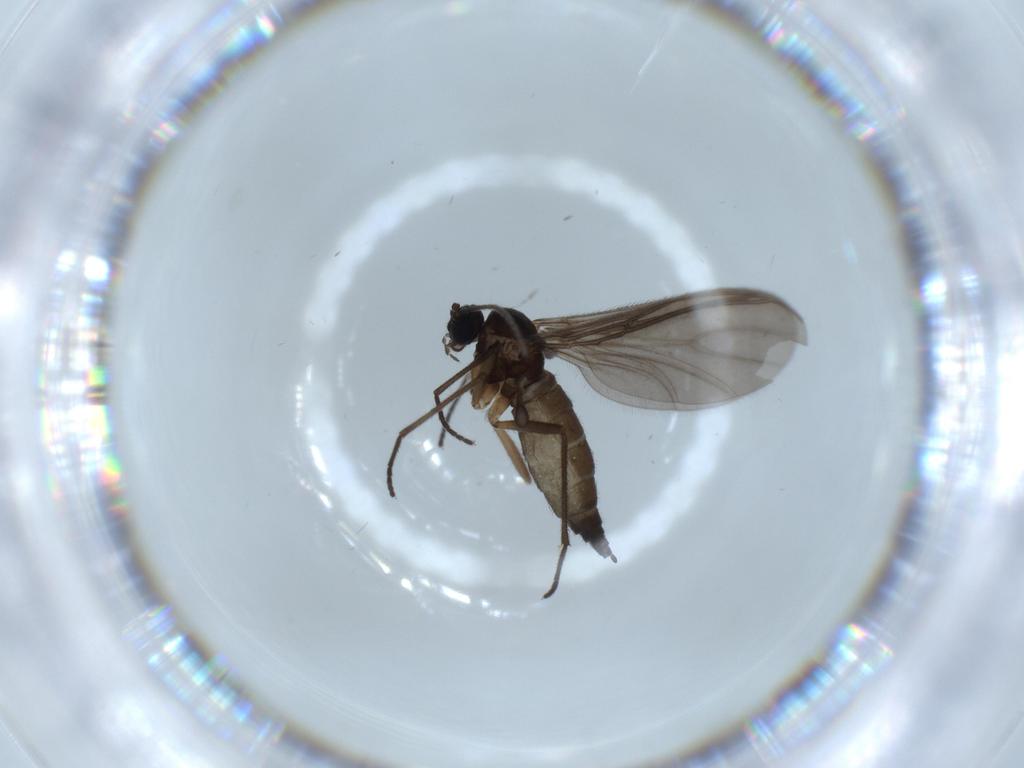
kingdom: Animalia
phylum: Arthropoda
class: Insecta
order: Diptera
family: Sciaridae
